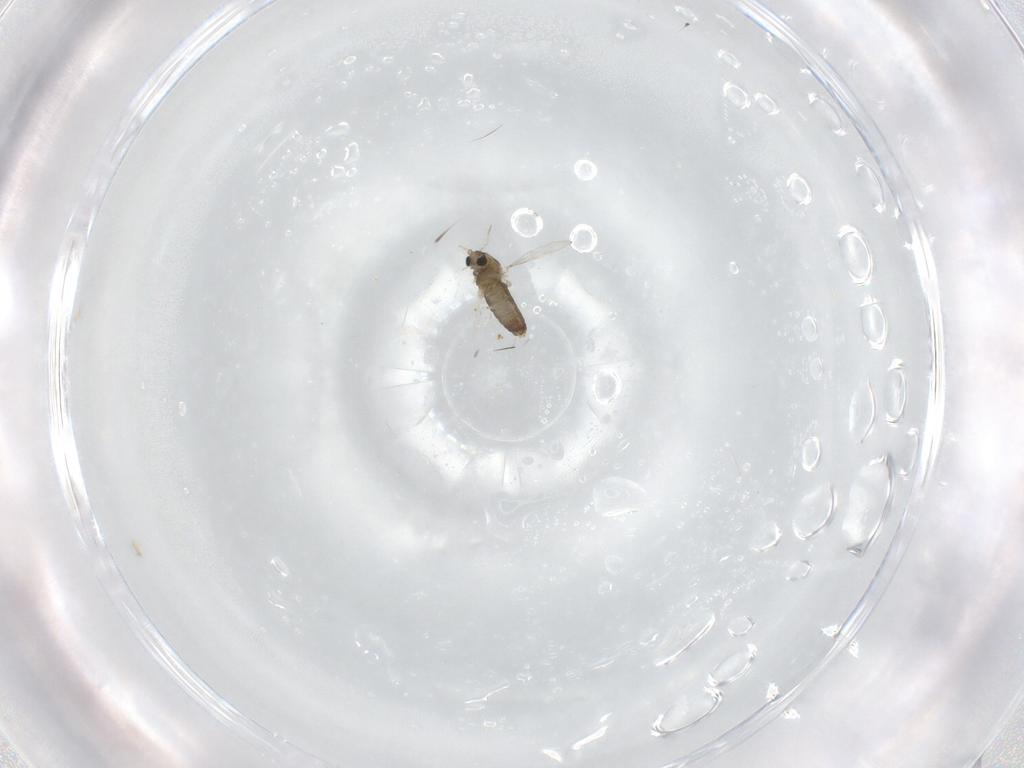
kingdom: Animalia
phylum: Arthropoda
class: Insecta
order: Diptera
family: Chironomidae
